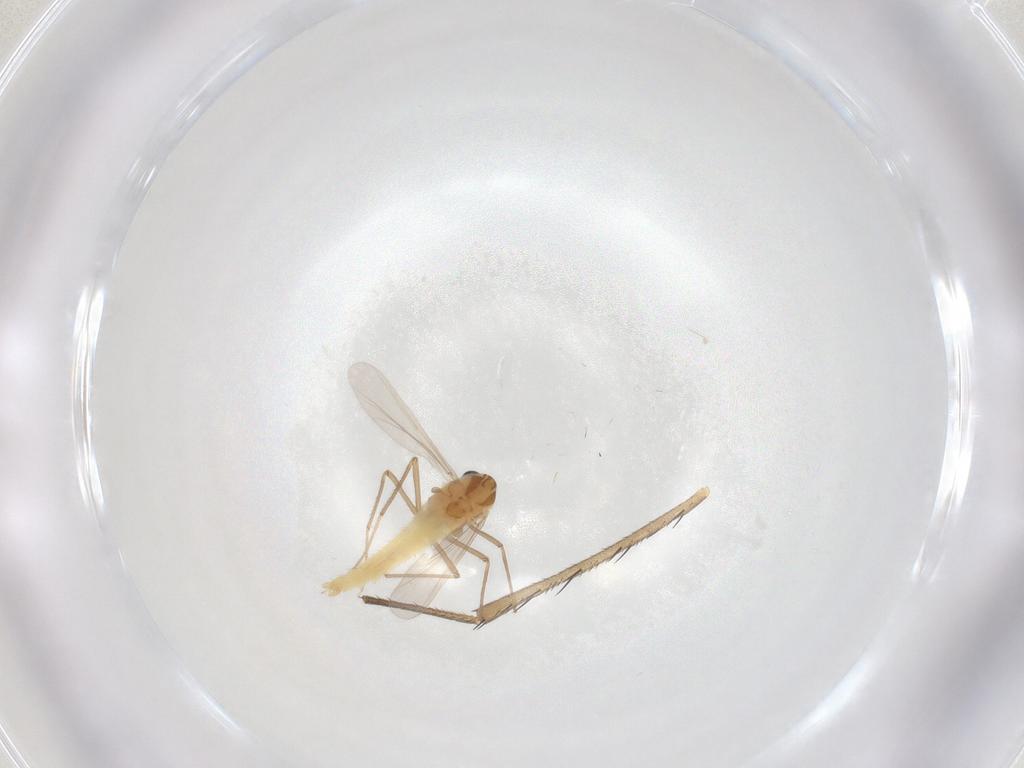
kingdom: Animalia
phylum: Arthropoda
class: Insecta
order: Diptera
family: Mycetophilidae
